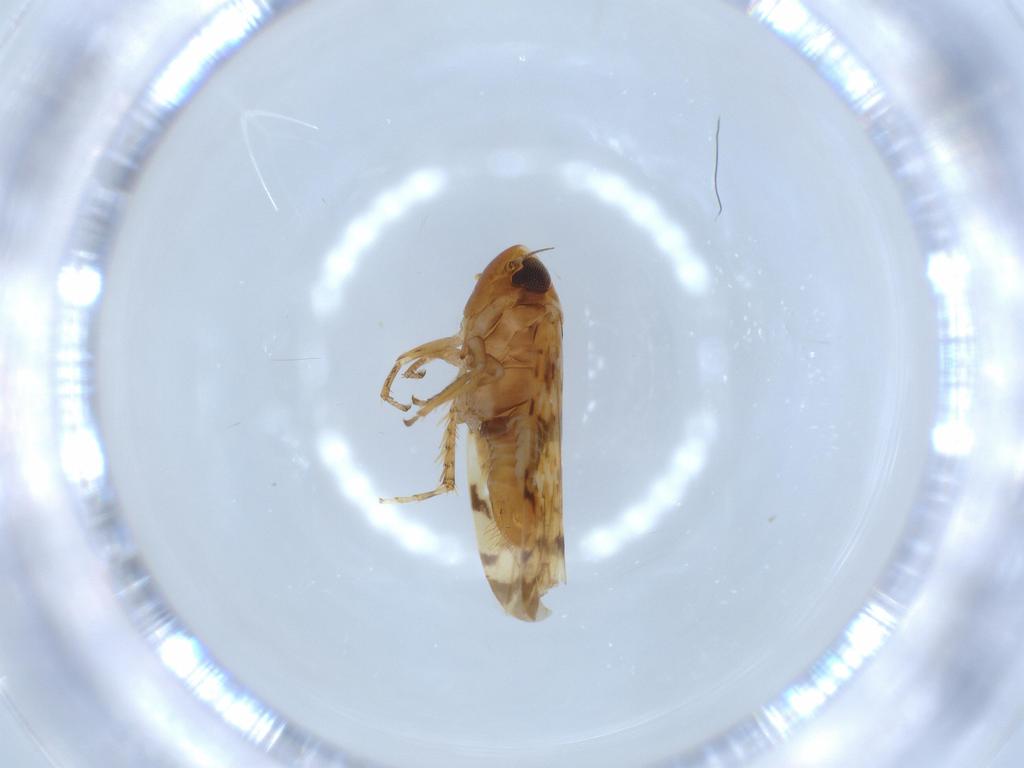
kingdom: Animalia
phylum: Arthropoda
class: Insecta
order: Hemiptera
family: Cicadellidae
